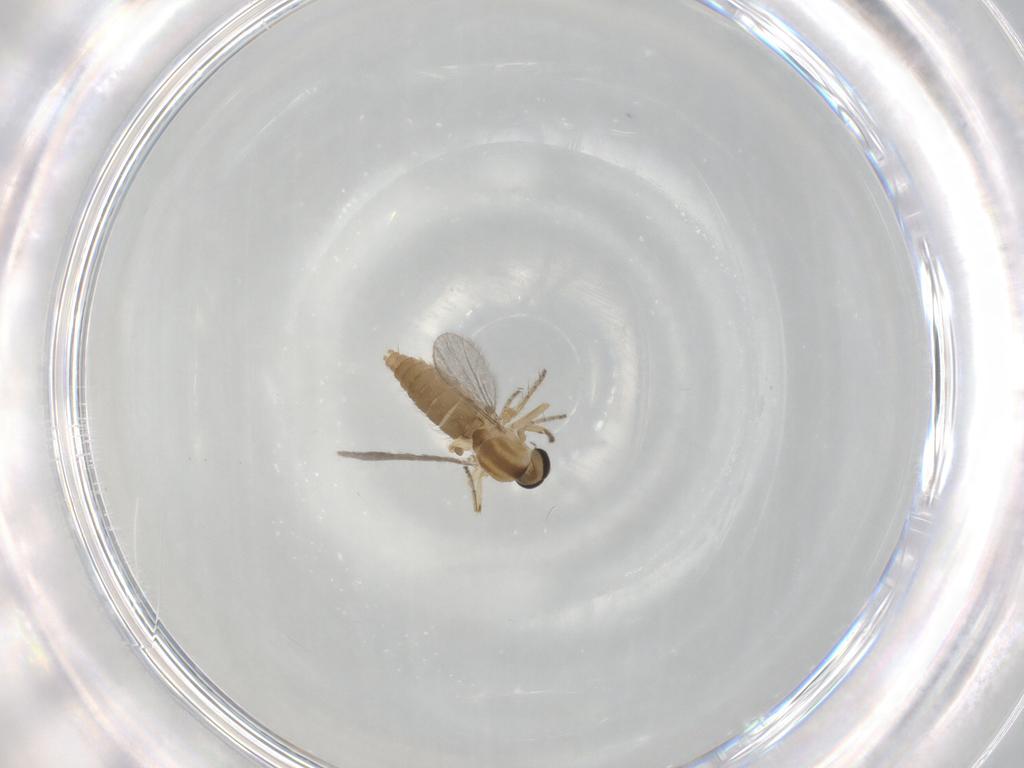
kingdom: Animalia
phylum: Arthropoda
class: Insecta
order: Diptera
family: Ceratopogonidae
